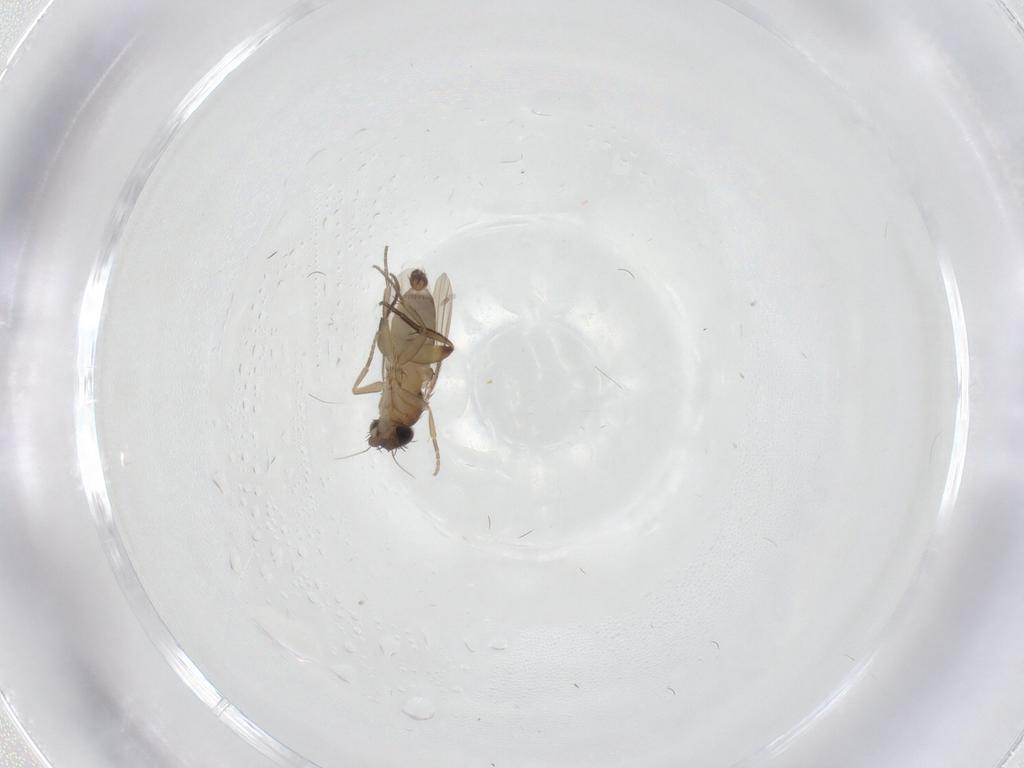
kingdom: Animalia
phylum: Arthropoda
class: Insecta
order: Diptera
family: Phoridae
